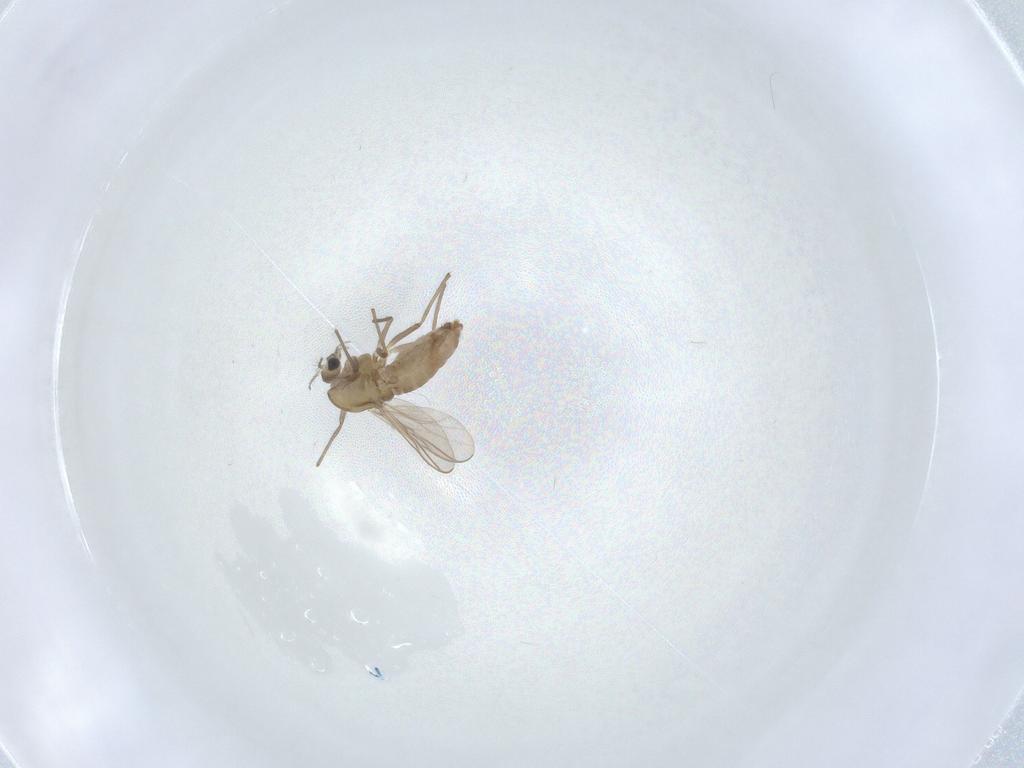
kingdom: Animalia
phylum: Arthropoda
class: Insecta
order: Diptera
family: Chironomidae
